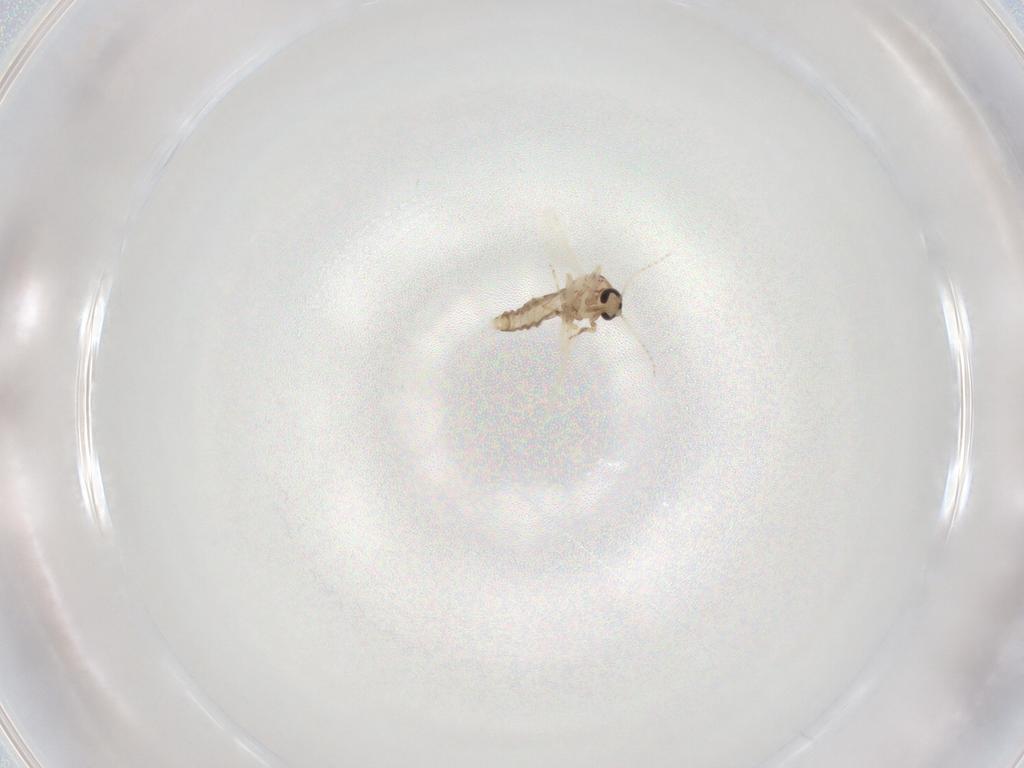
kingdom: Animalia
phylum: Arthropoda
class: Insecta
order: Diptera
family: Ceratopogonidae
